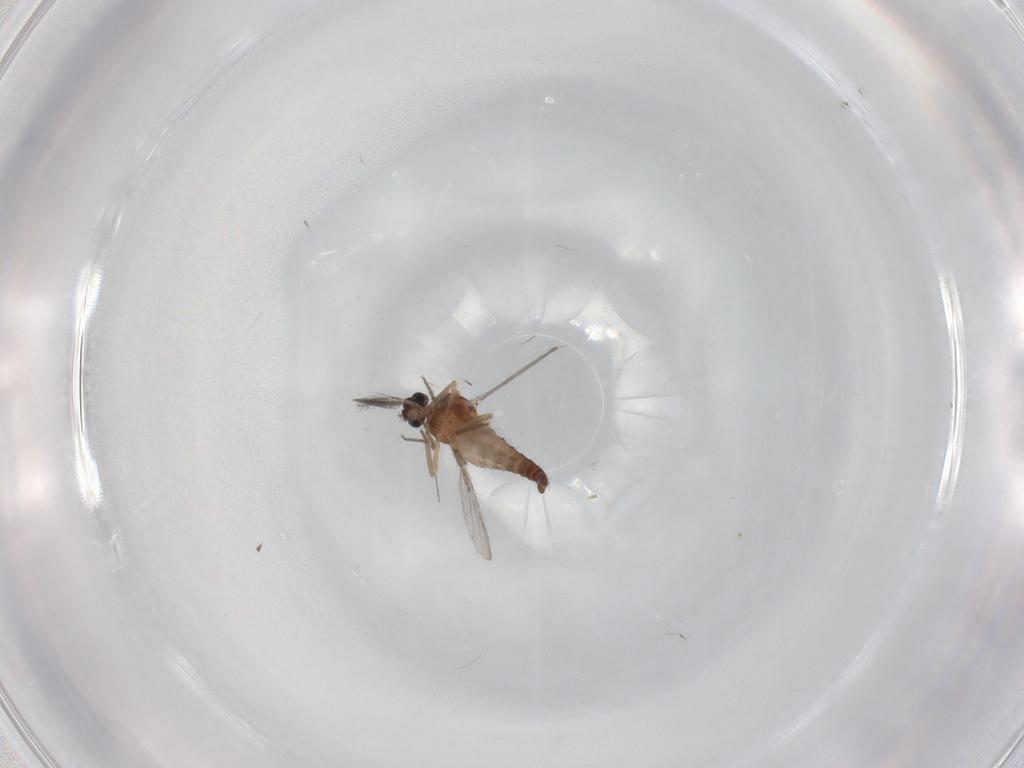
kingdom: Animalia
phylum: Arthropoda
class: Insecta
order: Diptera
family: Ceratopogonidae
